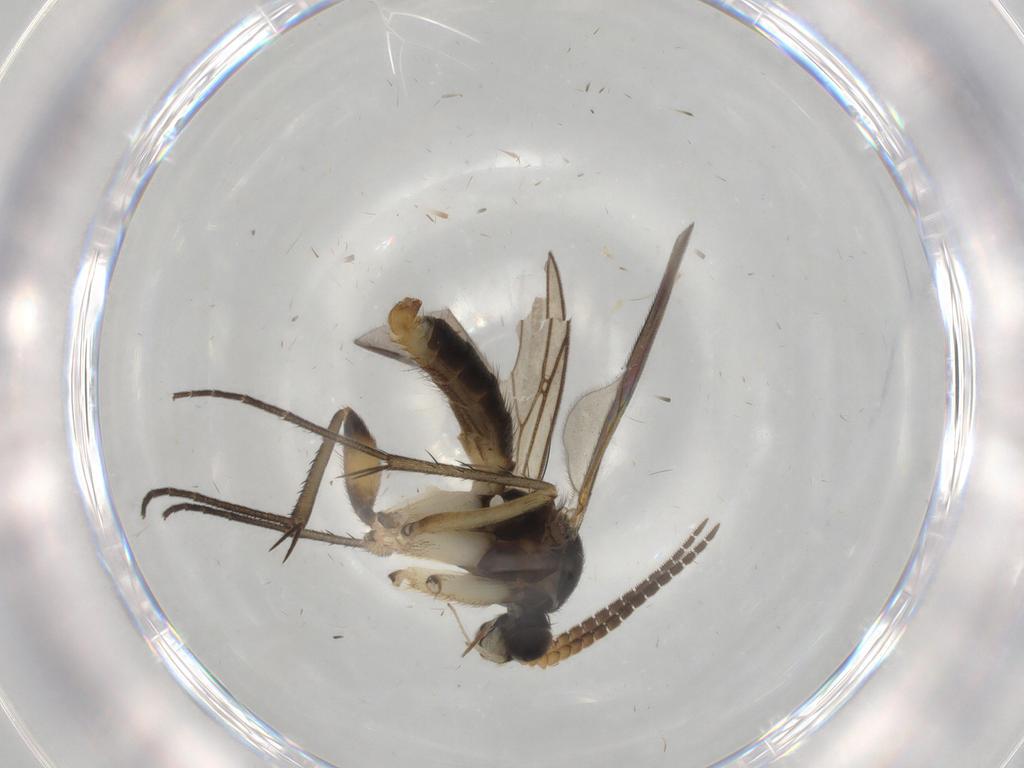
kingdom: Animalia
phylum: Arthropoda
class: Insecta
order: Diptera
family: Mycetophilidae
